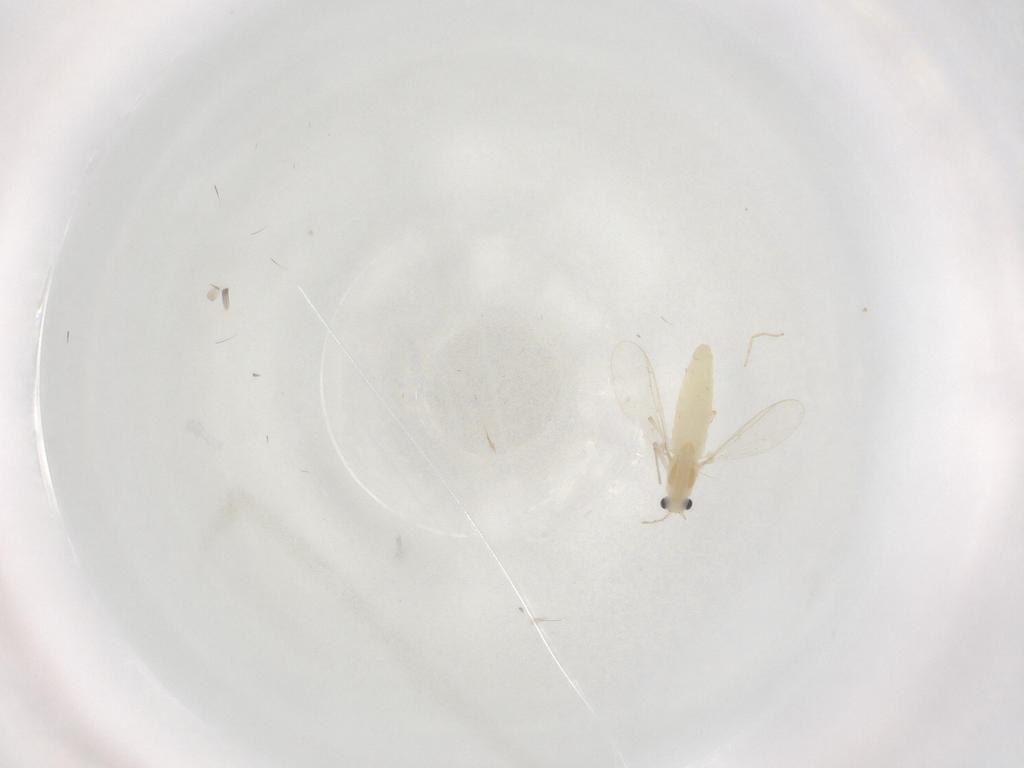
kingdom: Animalia
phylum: Arthropoda
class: Insecta
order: Diptera
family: Chironomidae
